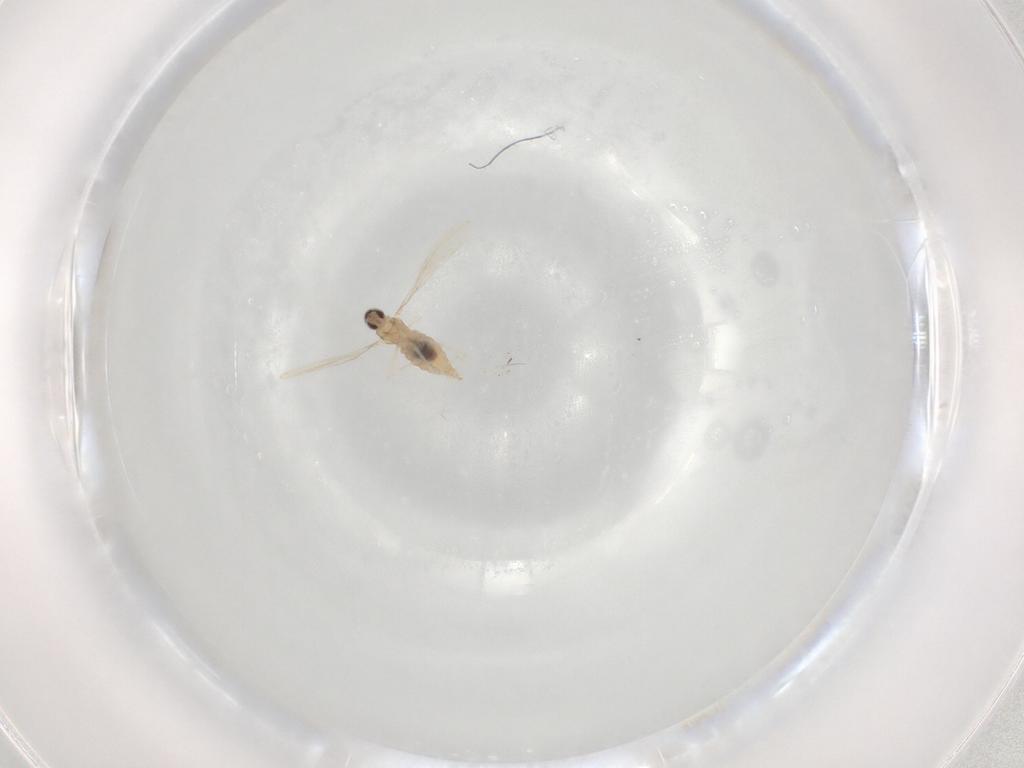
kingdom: Animalia
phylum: Arthropoda
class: Insecta
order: Diptera
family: Cecidomyiidae
